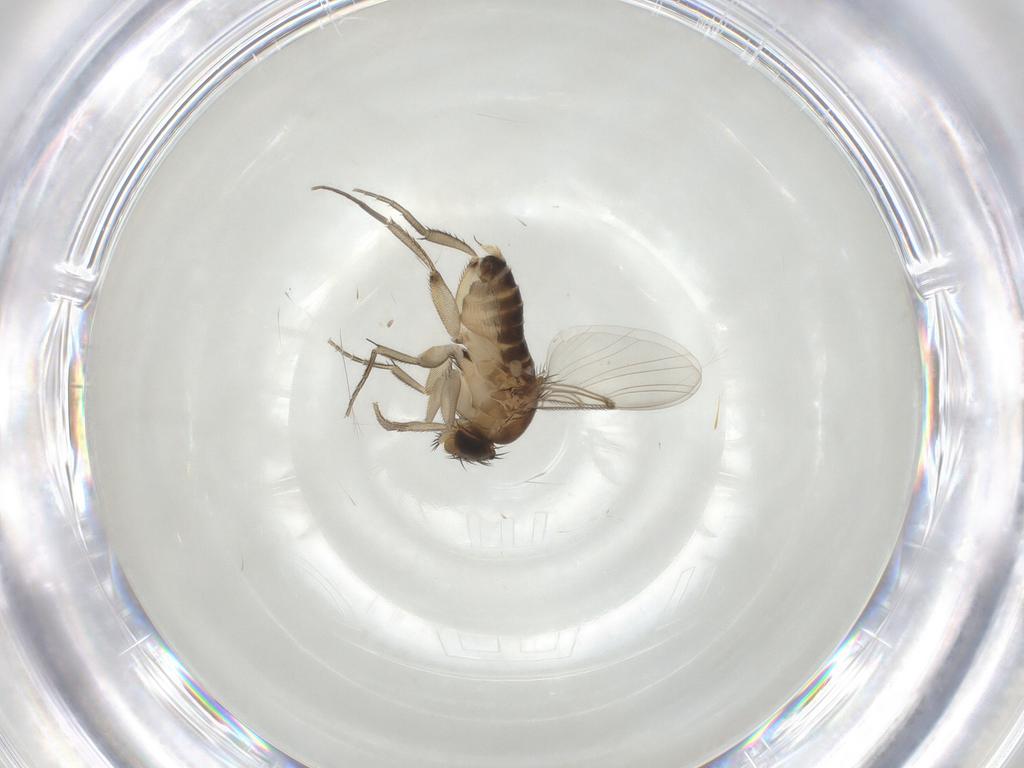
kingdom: Animalia
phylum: Arthropoda
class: Insecta
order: Diptera
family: Phoridae
